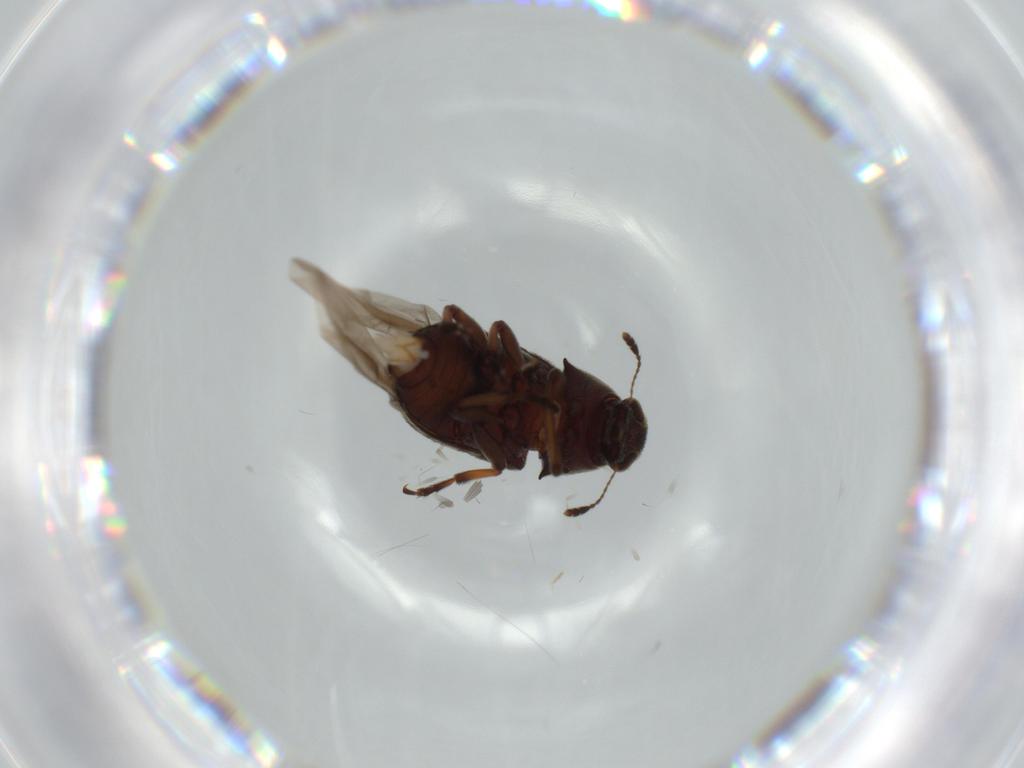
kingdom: Animalia
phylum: Arthropoda
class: Insecta
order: Coleoptera
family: Anthribidae
